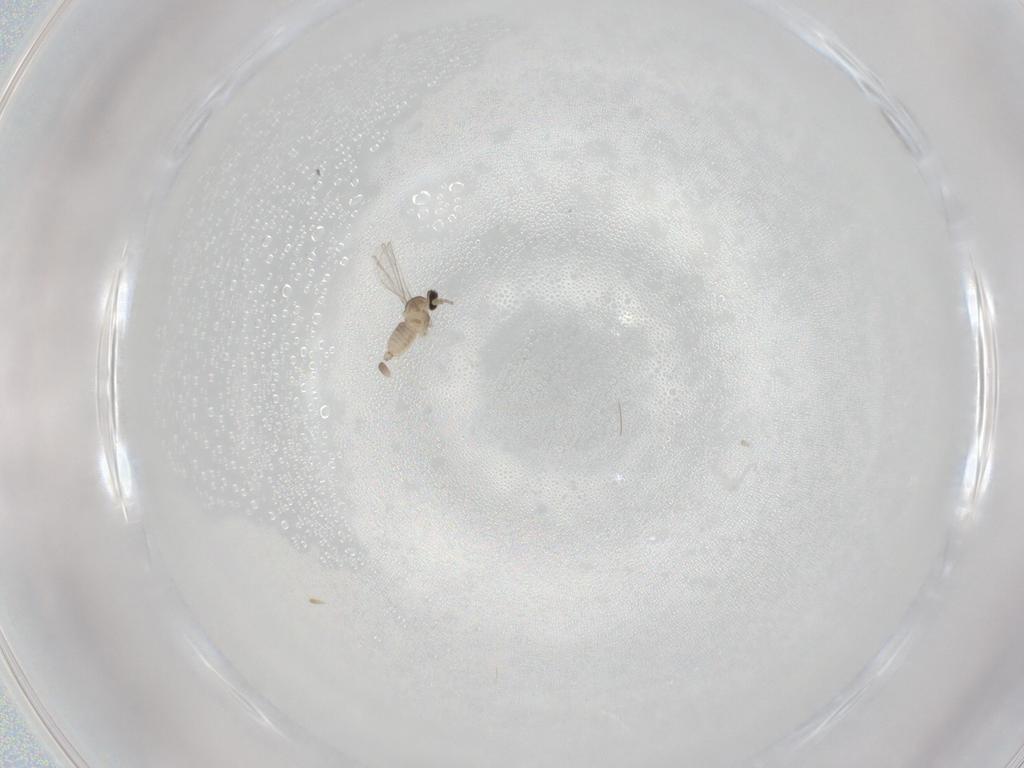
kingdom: Animalia
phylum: Arthropoda
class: Insecta
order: Diptera
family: Cecidomyiidae
